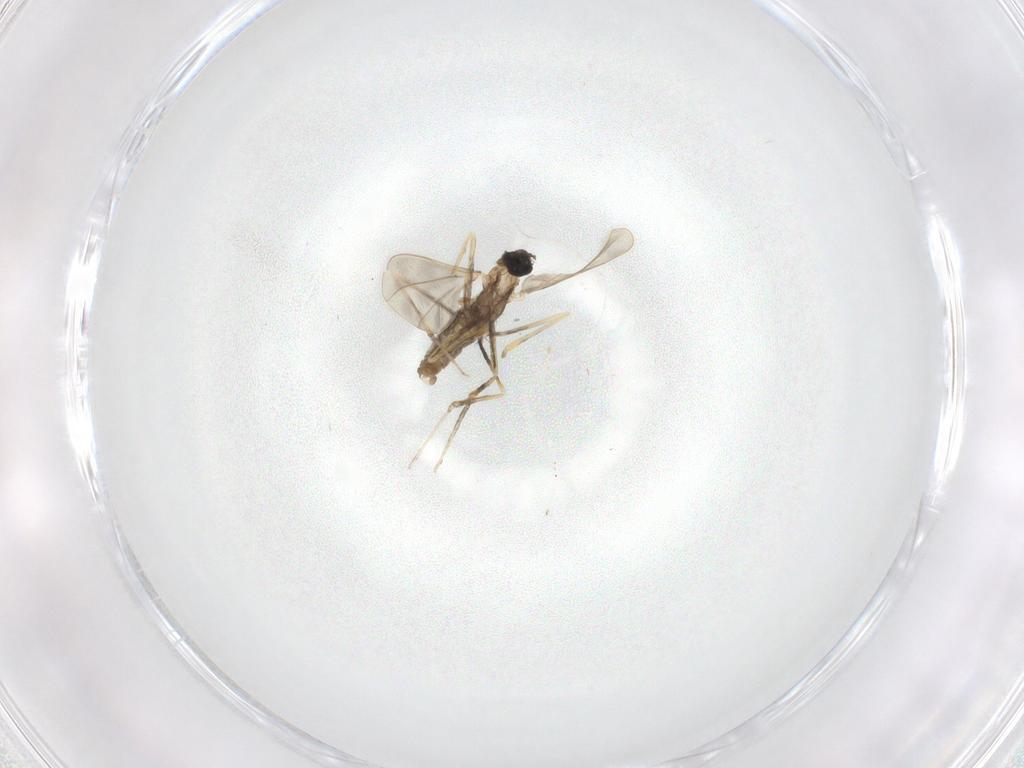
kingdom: Animalia
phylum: Arthropoda
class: Insecta
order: Diptera
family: Cecidomyiidae
